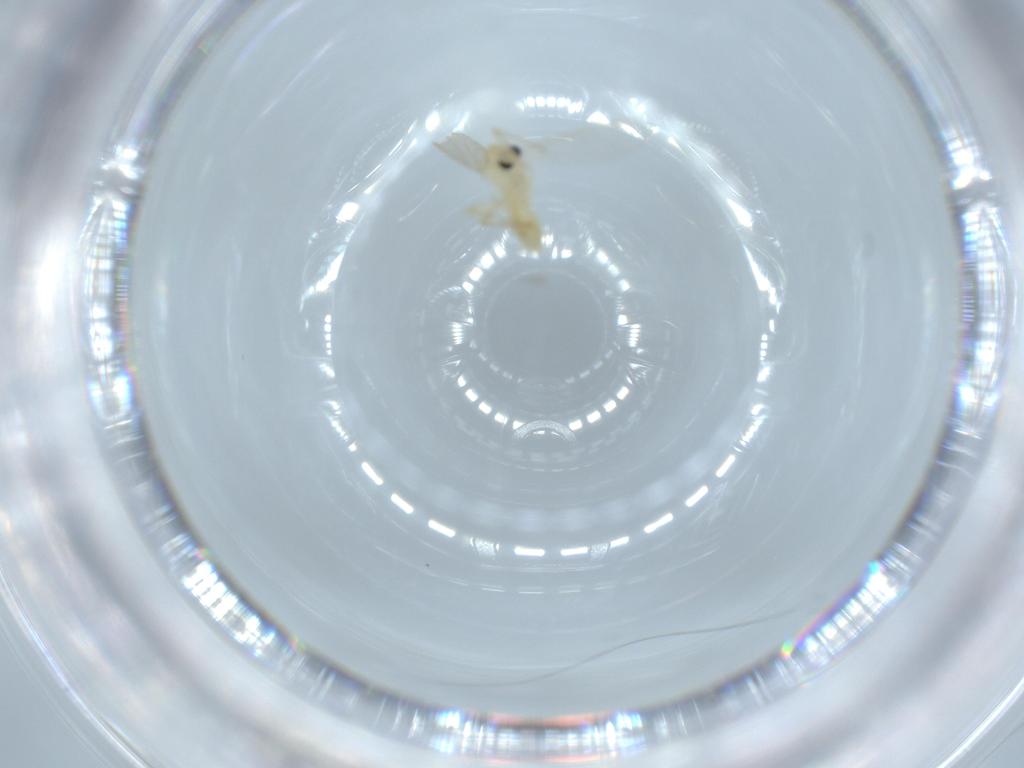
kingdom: Animalia
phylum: Arthropoda
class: Insecta
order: Diptera
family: Chironomidae
